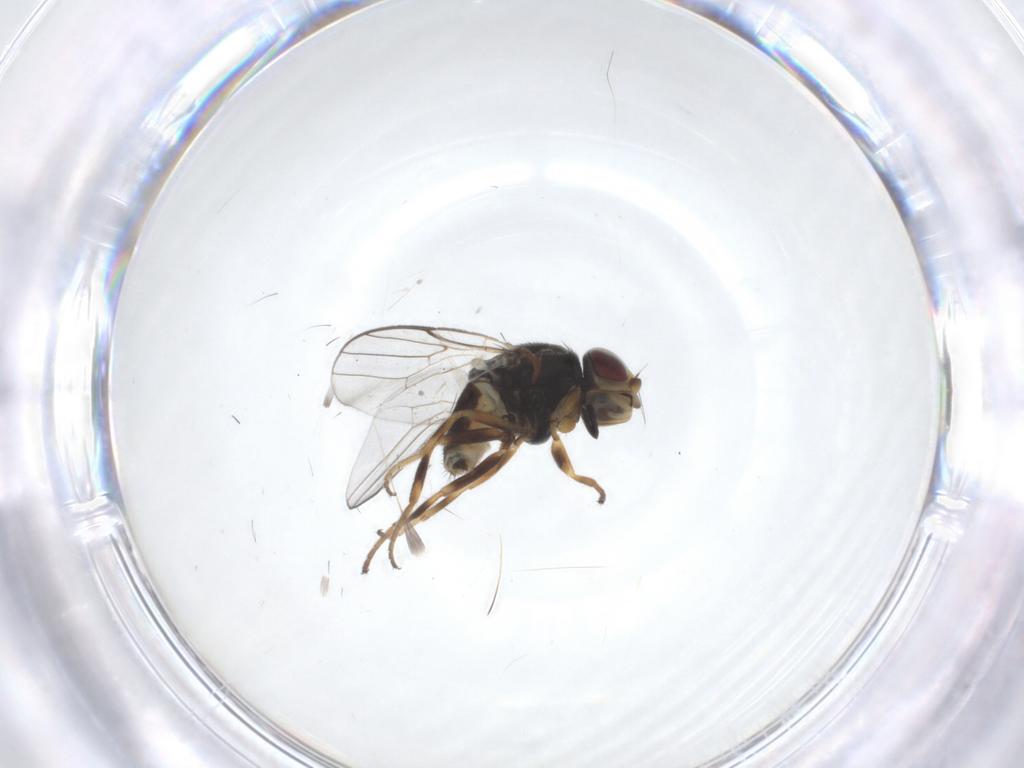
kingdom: Animalia
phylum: Arthropoda
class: Insecta
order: Diptera
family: Chloropidae
